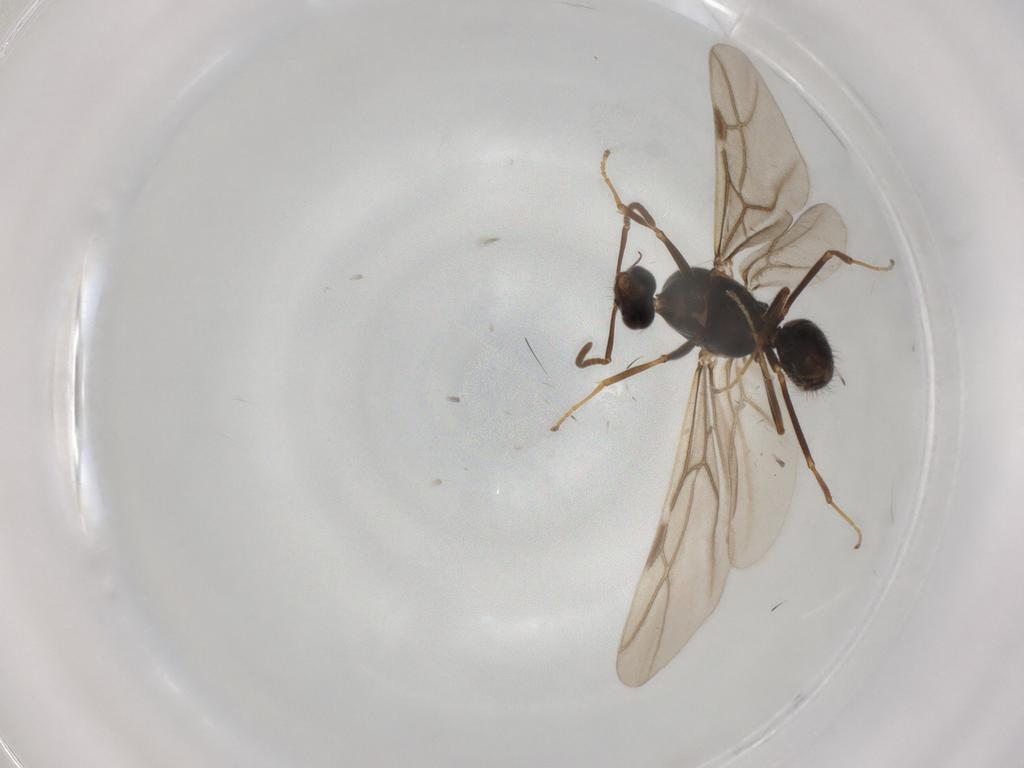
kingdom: Animalia
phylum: Arthropoda
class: Insecta
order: Hymenoptera
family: Formicidae
